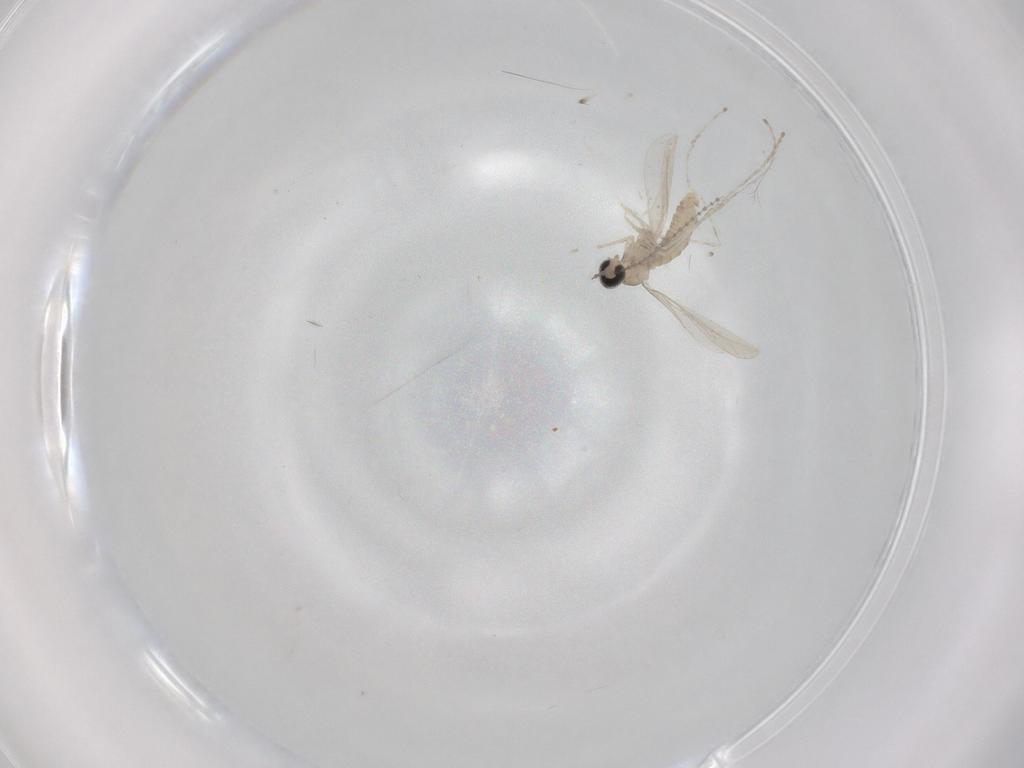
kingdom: Animalia
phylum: Arthropoda
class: Insecta
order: Diptera
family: Cecidomyiidae
